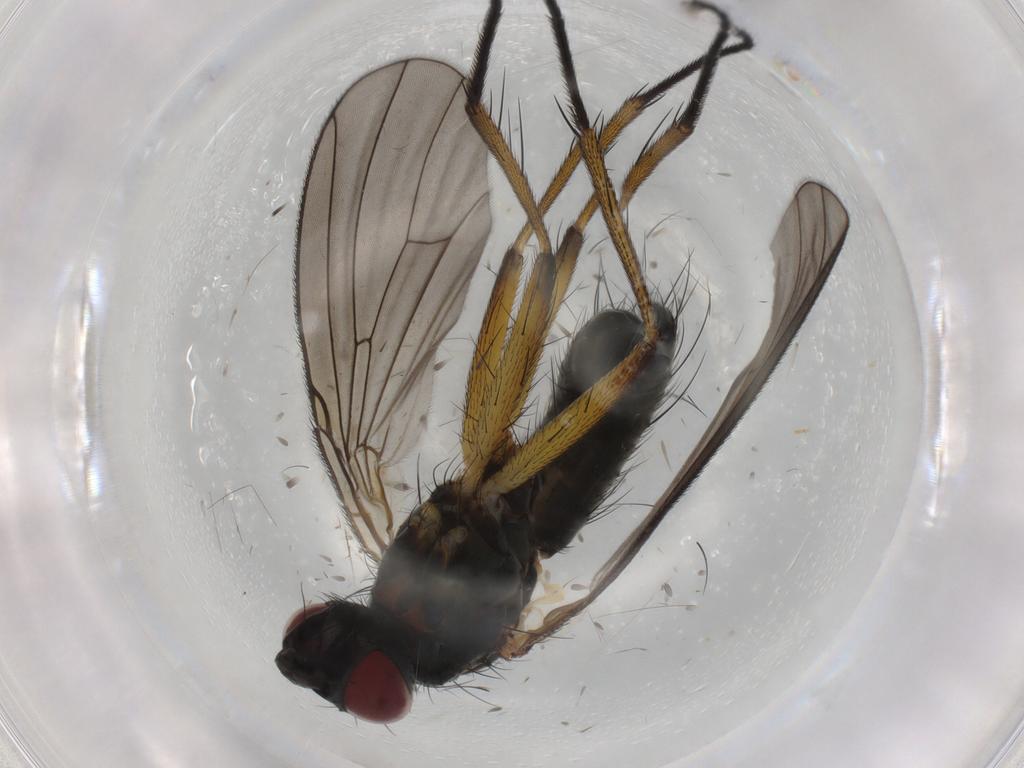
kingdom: Animalia
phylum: Arthropoda
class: Insecta
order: Diptera
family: Muscidae
